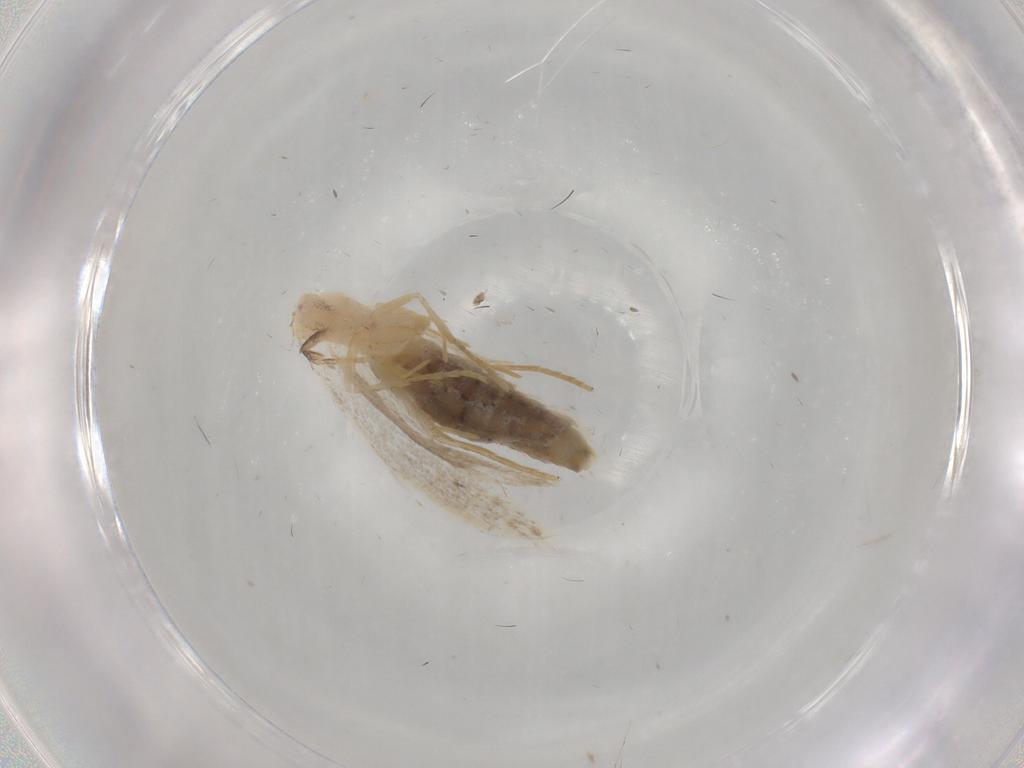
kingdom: Animalia
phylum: Arthropoda
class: Insecta
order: Lepidoptera
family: Nepticulidae
